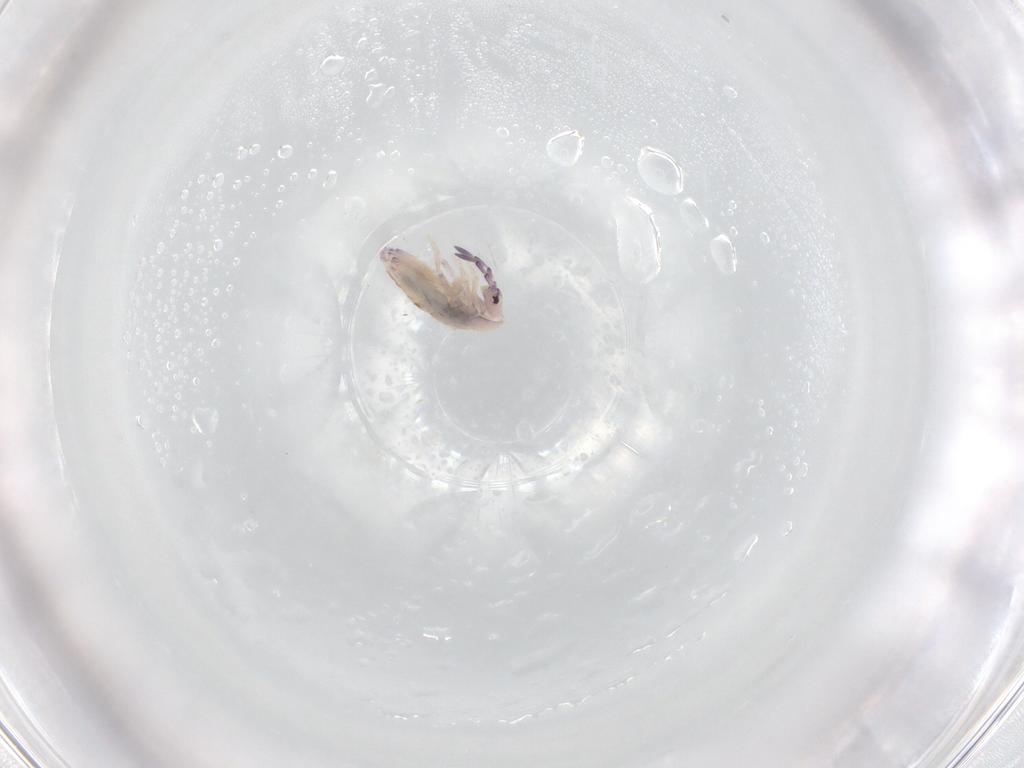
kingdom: Animalia
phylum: Arthropoda
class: Collembola
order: Entomobryomorpha
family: Entomobryidae
